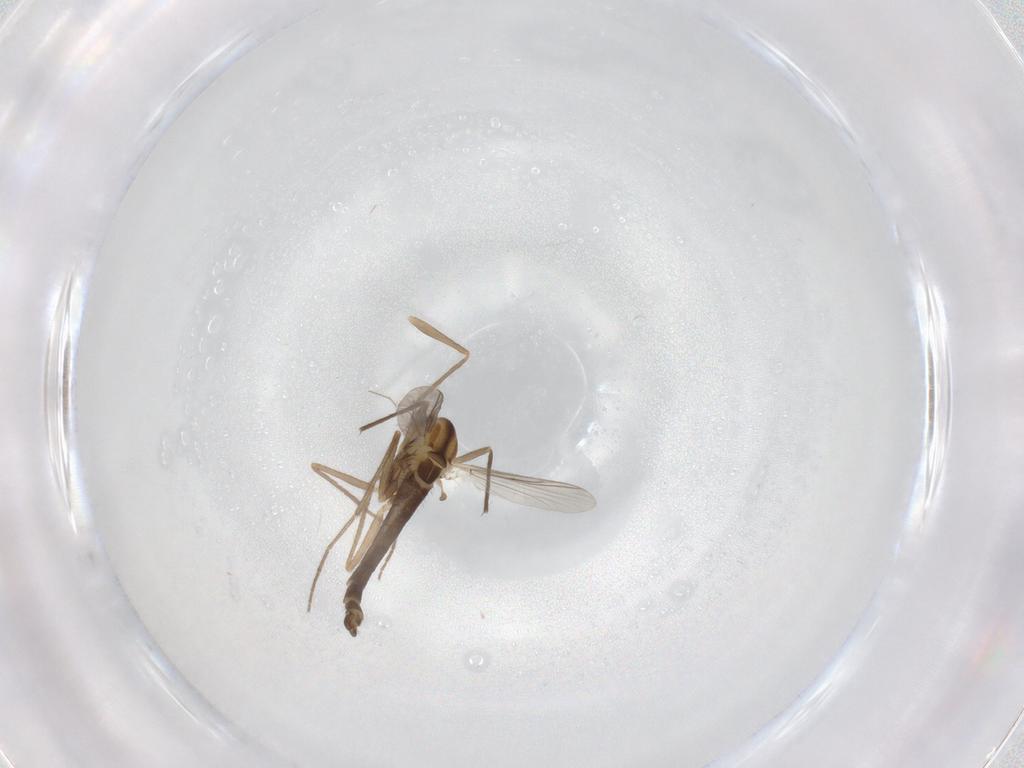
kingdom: Animalia
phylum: Arthropoda
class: Insecta
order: Diptera
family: Chironomidae
